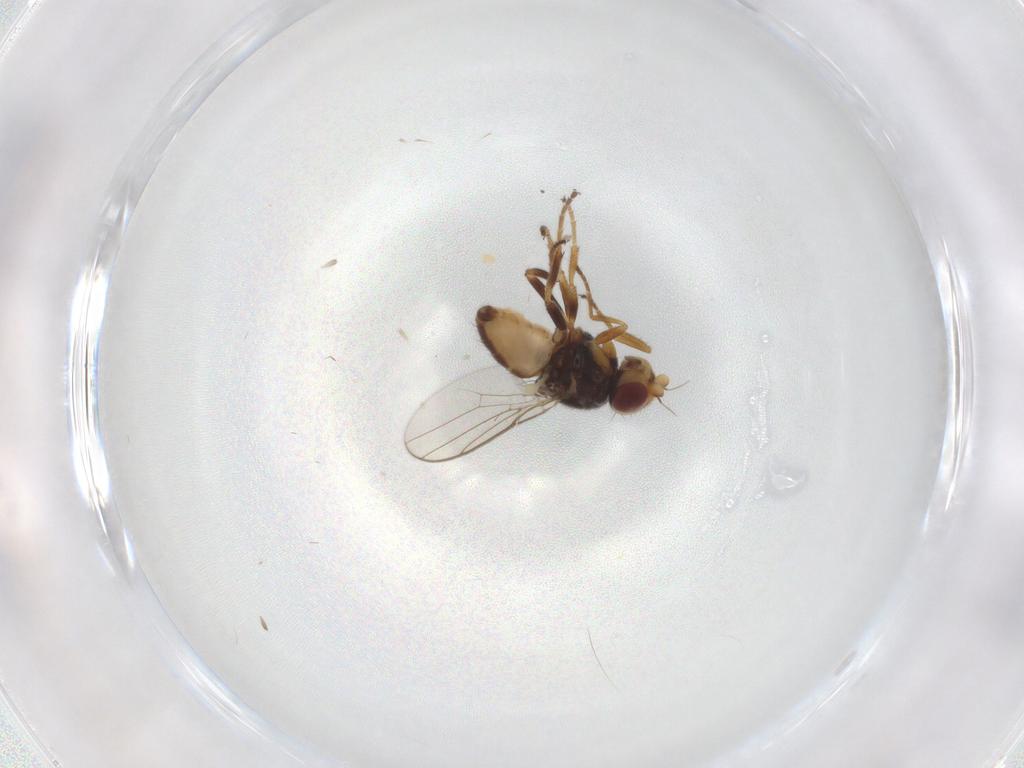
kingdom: Animalia
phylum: Arthropoda
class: Insecta
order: Diptera
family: Chloropidae
